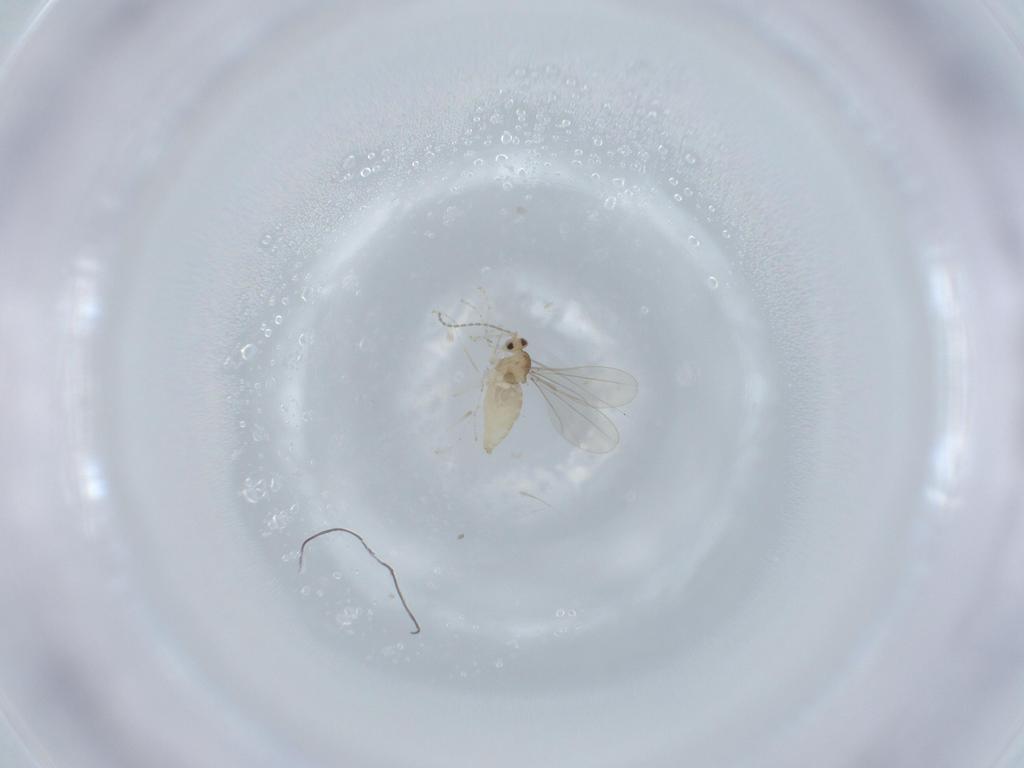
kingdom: Animalia
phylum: Arthropoda
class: Insecta
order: Diptera
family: Cecidomyiidae
